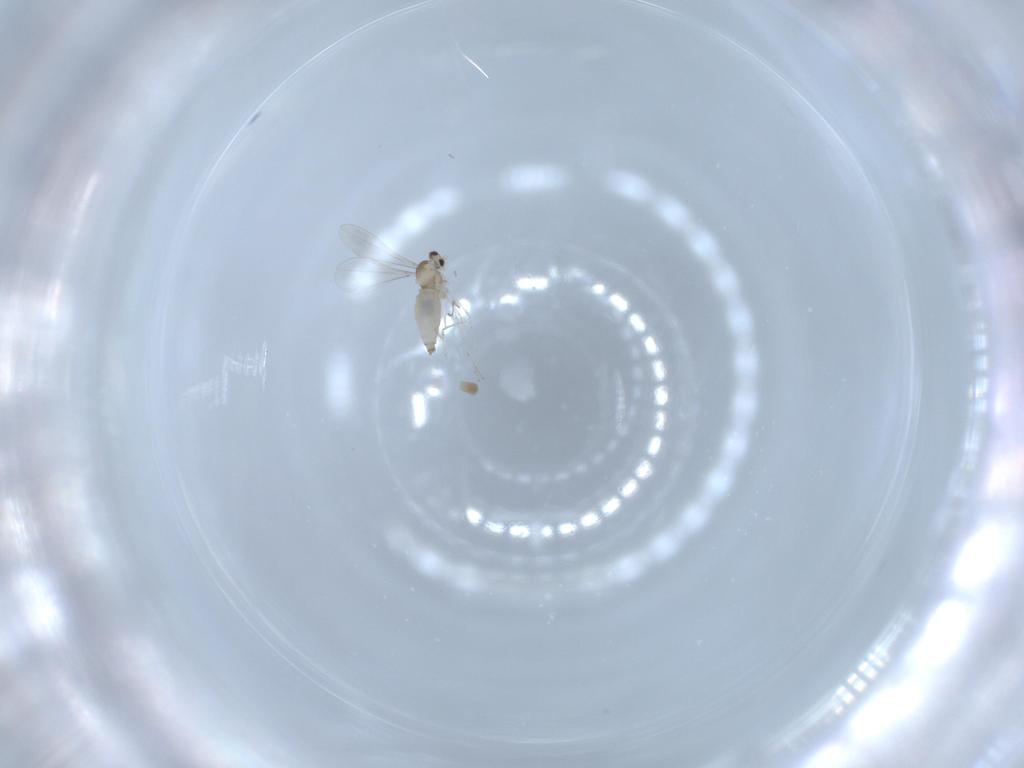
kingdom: Animalia
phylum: Arthropoda
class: Insecta
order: Diptera
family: Cecidomyiidae
